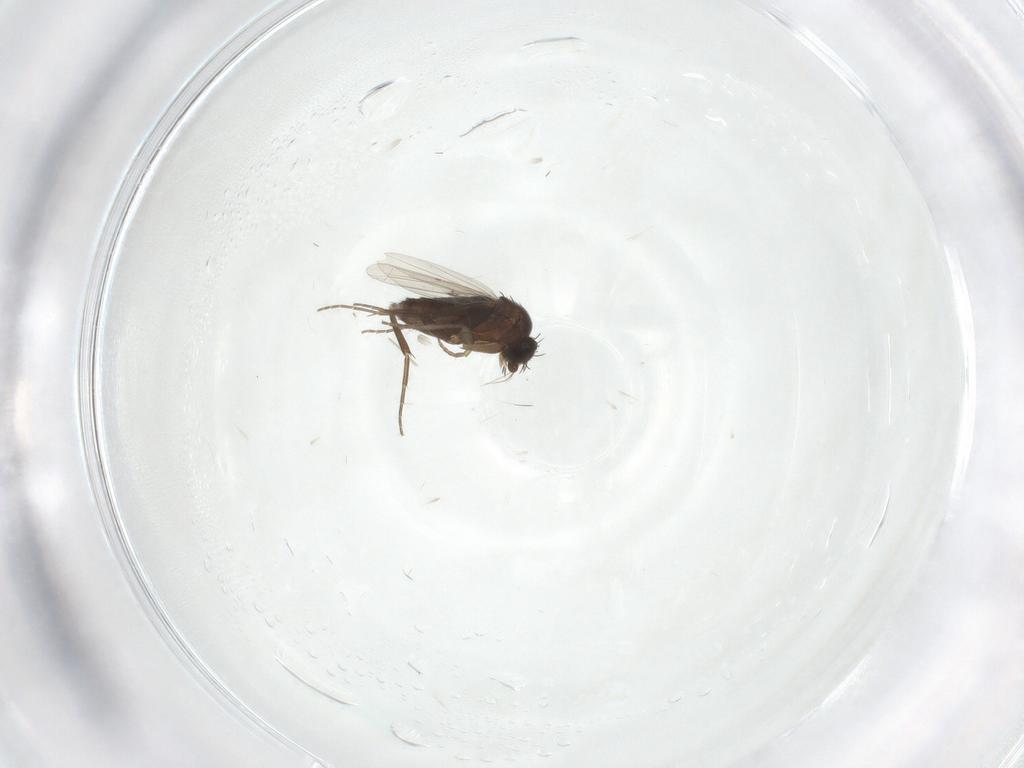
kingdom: Animalia
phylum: Arthropoda
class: Insecta
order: Diptera
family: Phoridae
